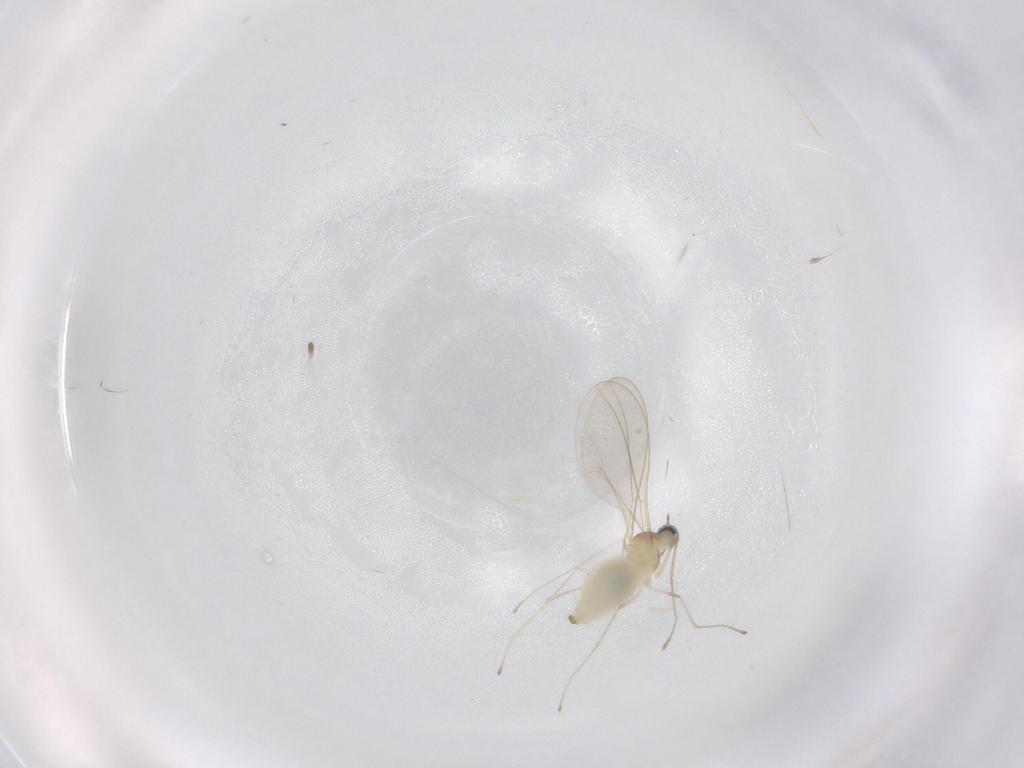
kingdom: Animalia
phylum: Arthropoda
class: Insecta
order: Diptera
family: Cecidomyiidae
